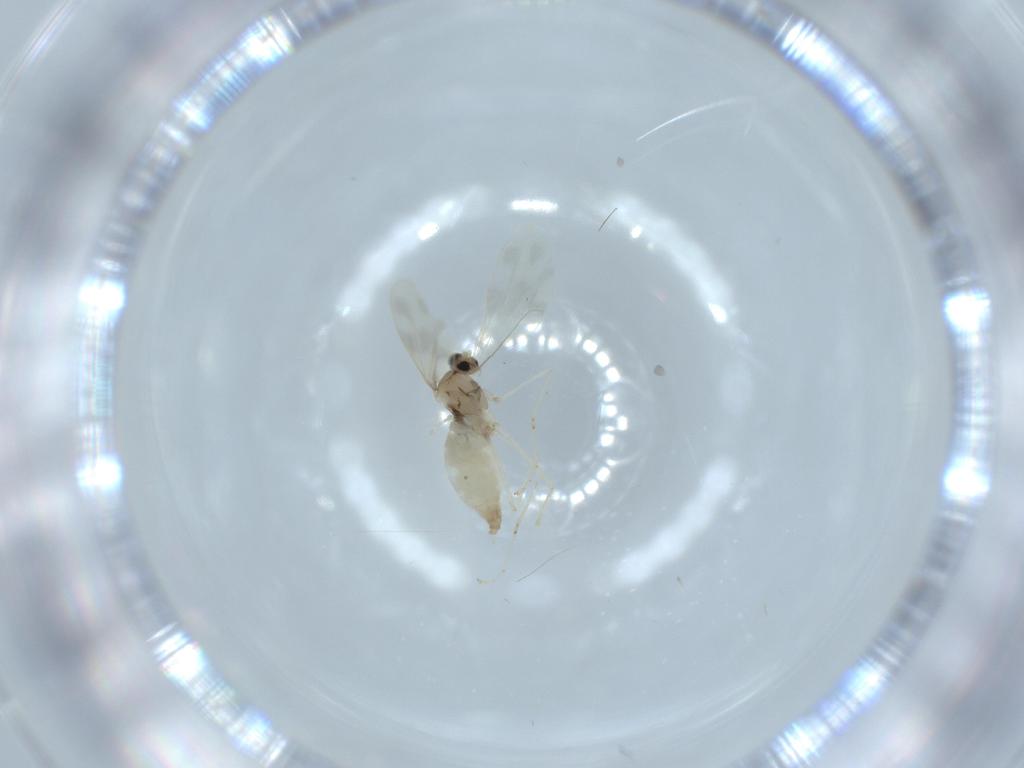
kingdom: Animalia
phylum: Arthropoda
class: Insecta
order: Diptera
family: Cecidomyiidae
